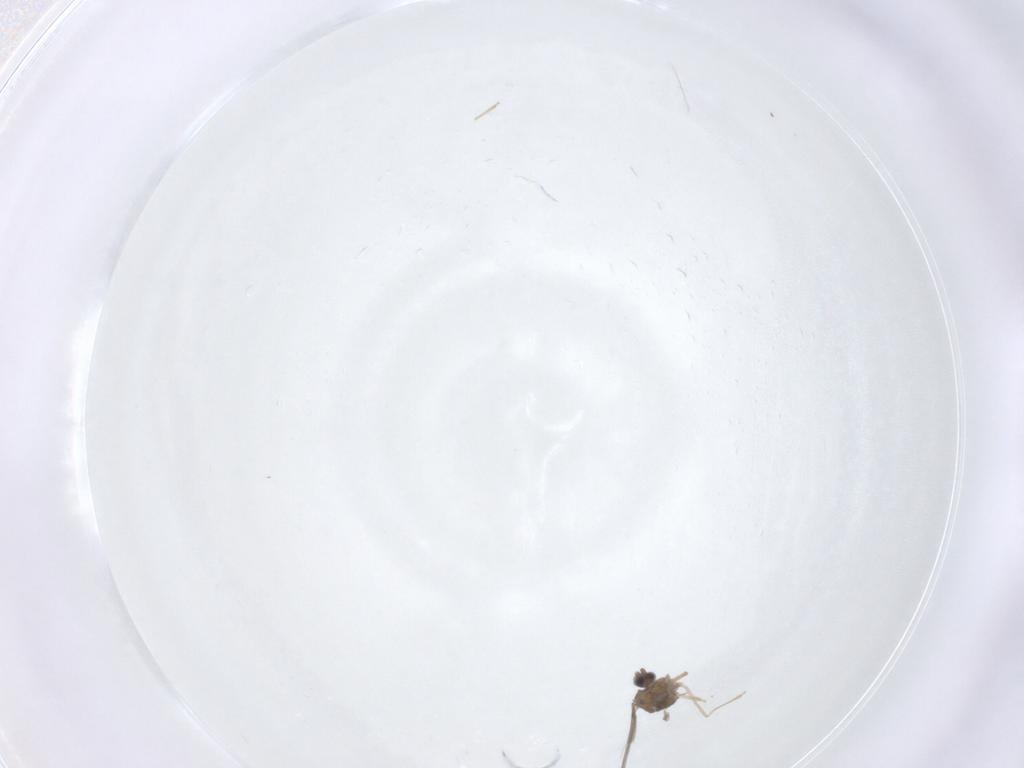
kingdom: Animalia
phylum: Arthropoda
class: Insecta
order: Diptera
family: Cecidomyiidae
